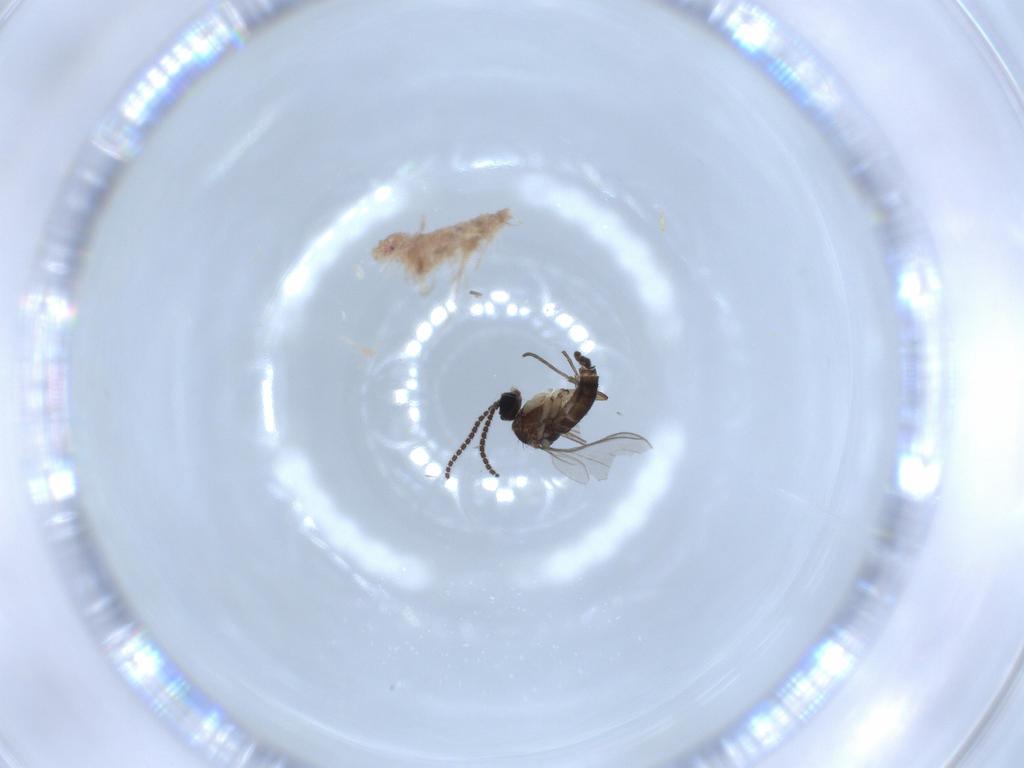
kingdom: Animalia
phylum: Arthropoda
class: Insecta
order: Diptera
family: Sciaridae
